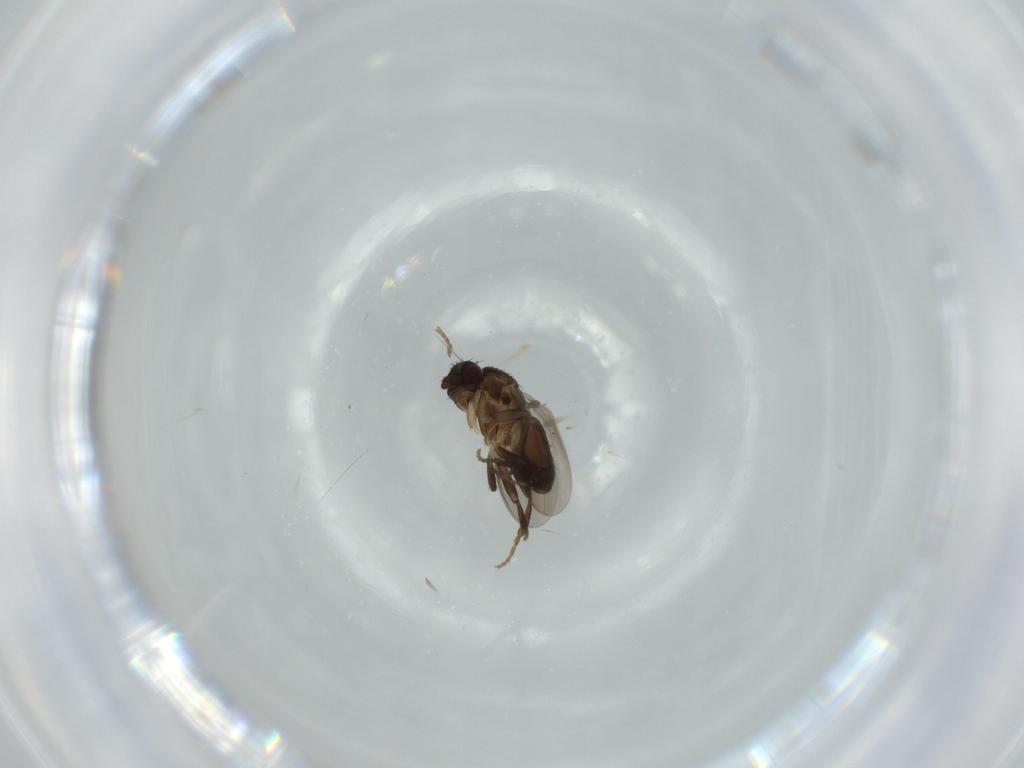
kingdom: Animalia
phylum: Arthropoda
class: Insecta
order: Diptera
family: Sphaeroceridae
